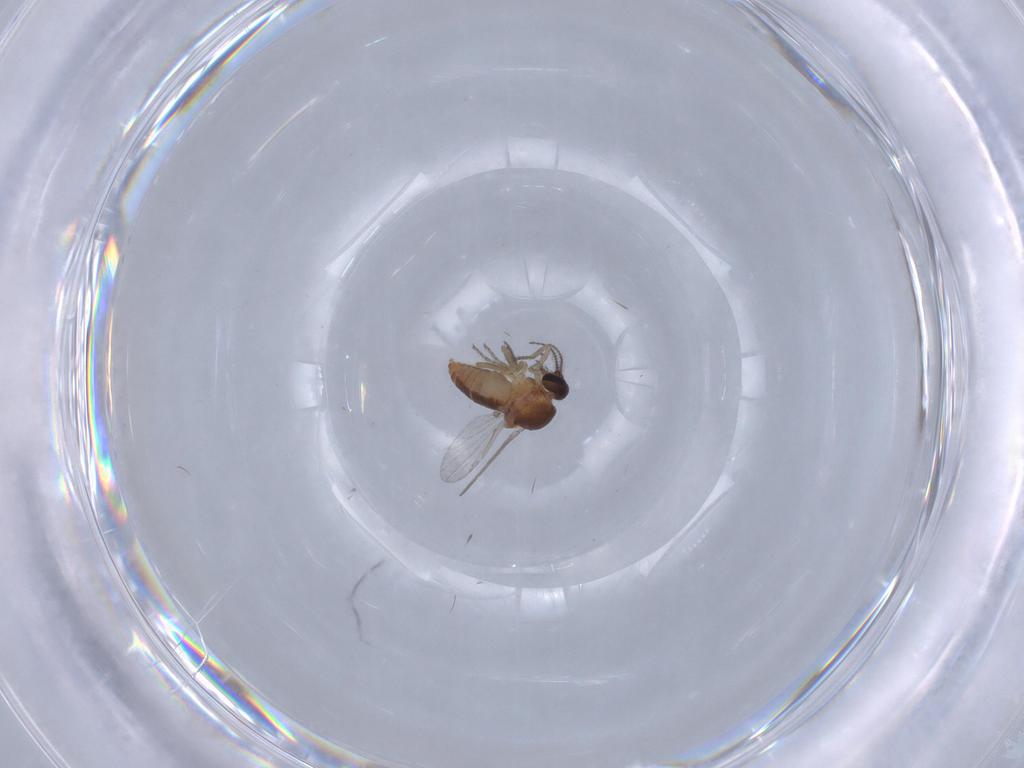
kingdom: Animalia
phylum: Arthropoda
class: Insecta
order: Diptera
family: Ceratopogonidae
